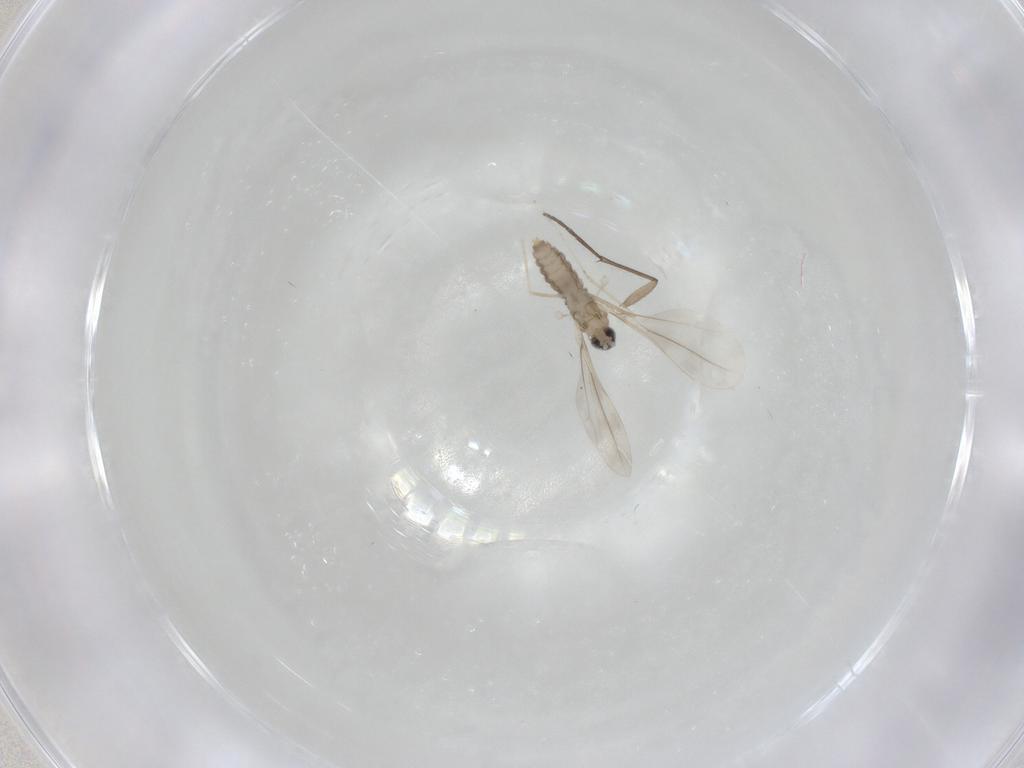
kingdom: Animalia
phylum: Arthropoda
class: Insecta
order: Diptera
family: Cecidomyiidae
